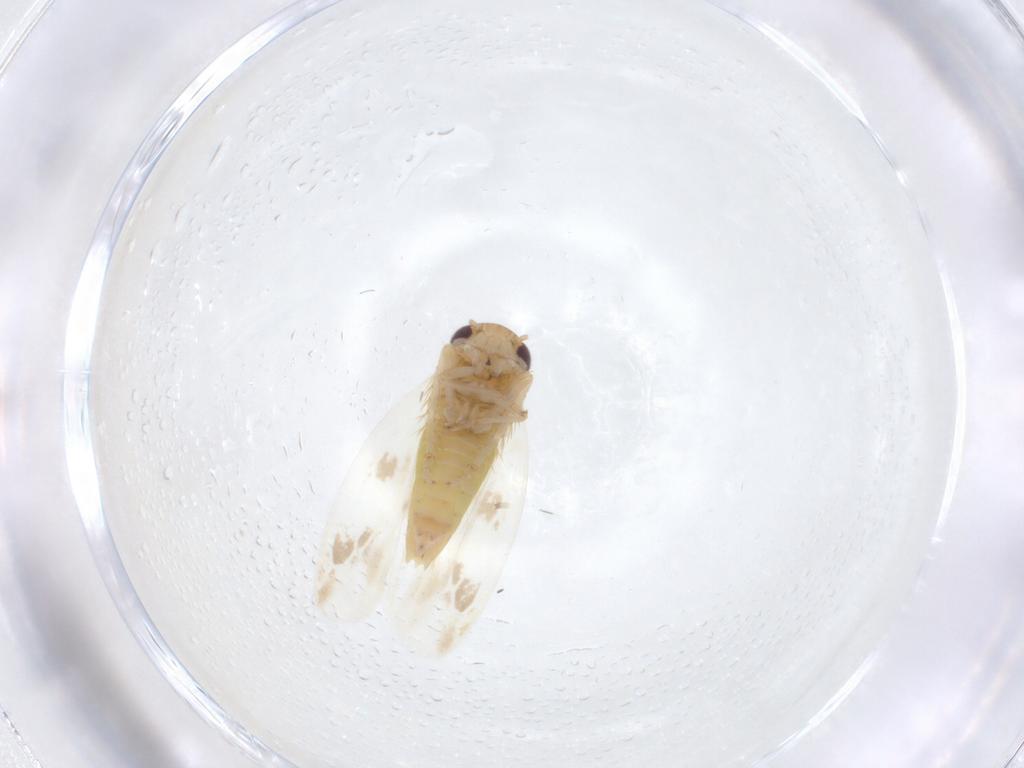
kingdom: Animalia
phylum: Arthropoda
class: Insecta
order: Hemiptera
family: Cicadellidae
